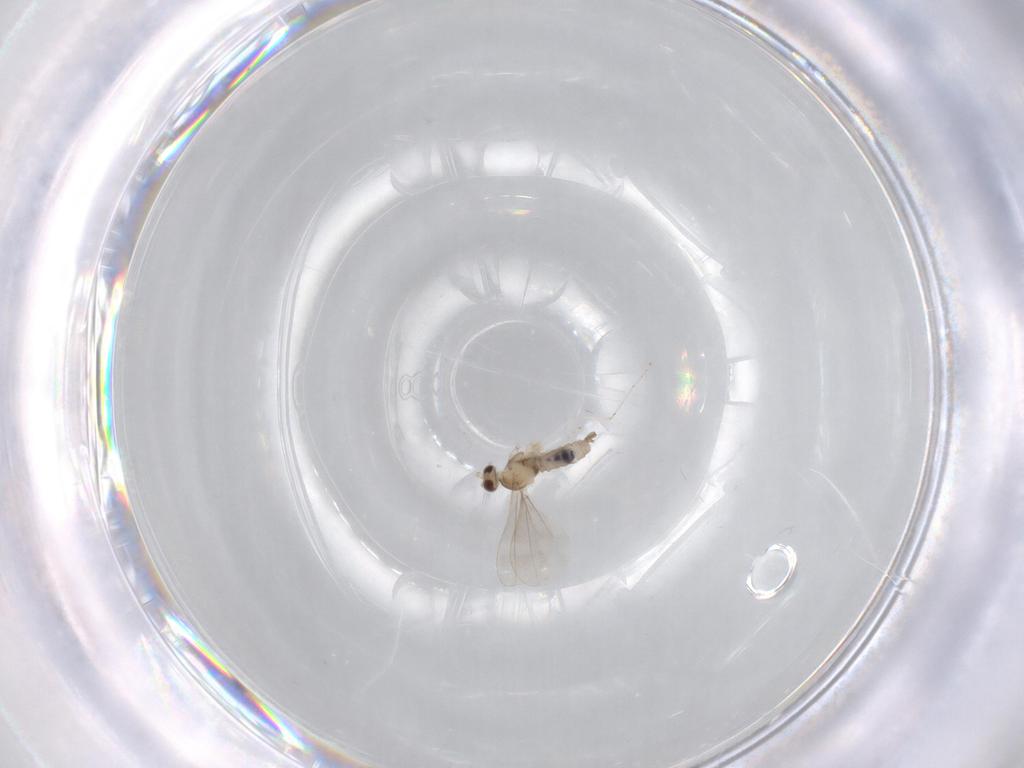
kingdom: Animalia
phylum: Arthropoda
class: Insecta
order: Diptera
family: Cecidomyiidae
